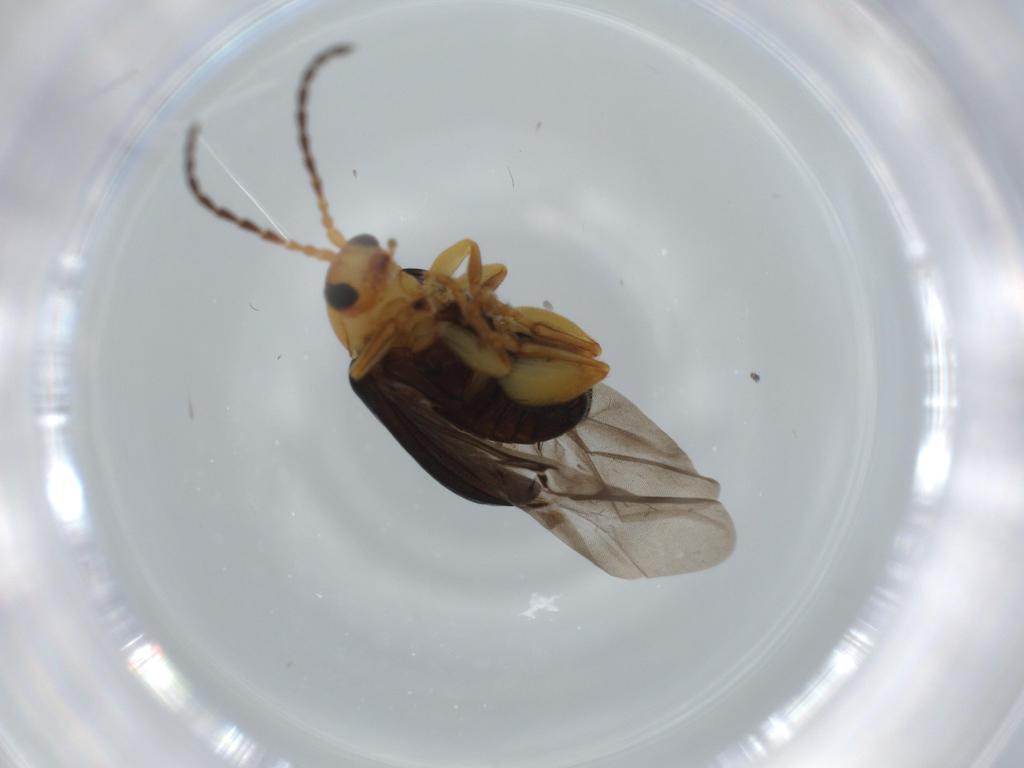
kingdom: Animalia
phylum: Arthropoda
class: Insecta
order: Coleoptera
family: Chrysomelidae
